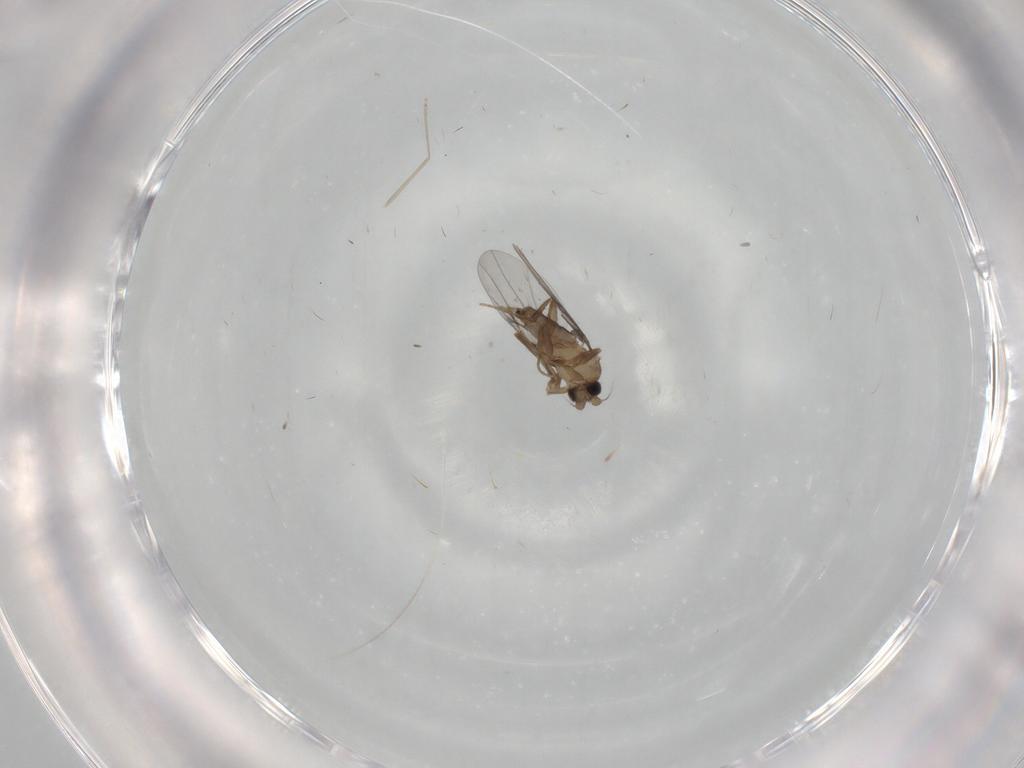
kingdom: Animalia
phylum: Arthropoda
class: Insecta
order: Diptera
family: Cecidomyiidae
